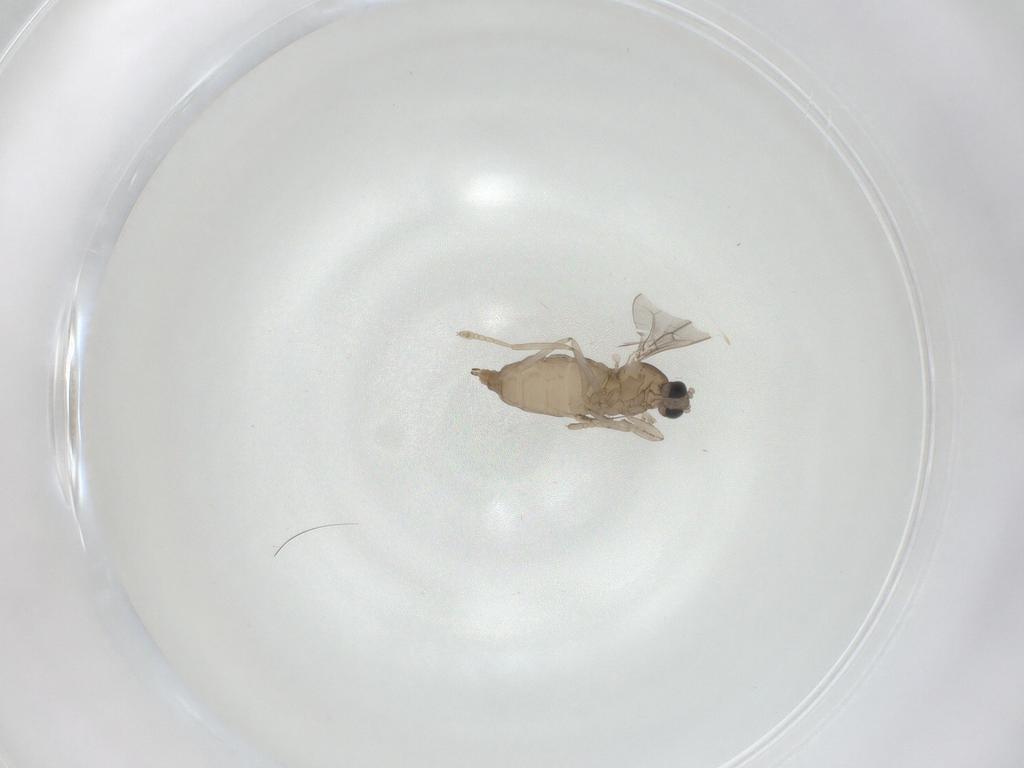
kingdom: Animalia
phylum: Arthropoda
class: Insecta
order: Diptera
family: Cecidomyiidae
